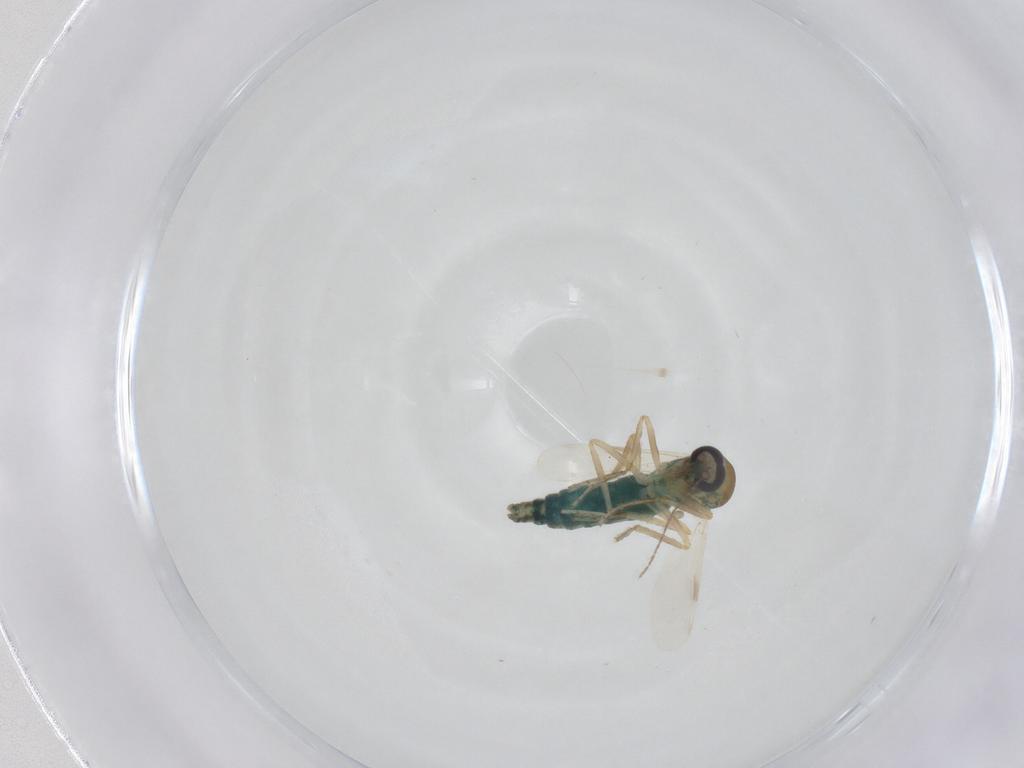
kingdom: Animalia
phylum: Arthropoda
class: Insecta
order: Diptera
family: Ceratopogonidae
